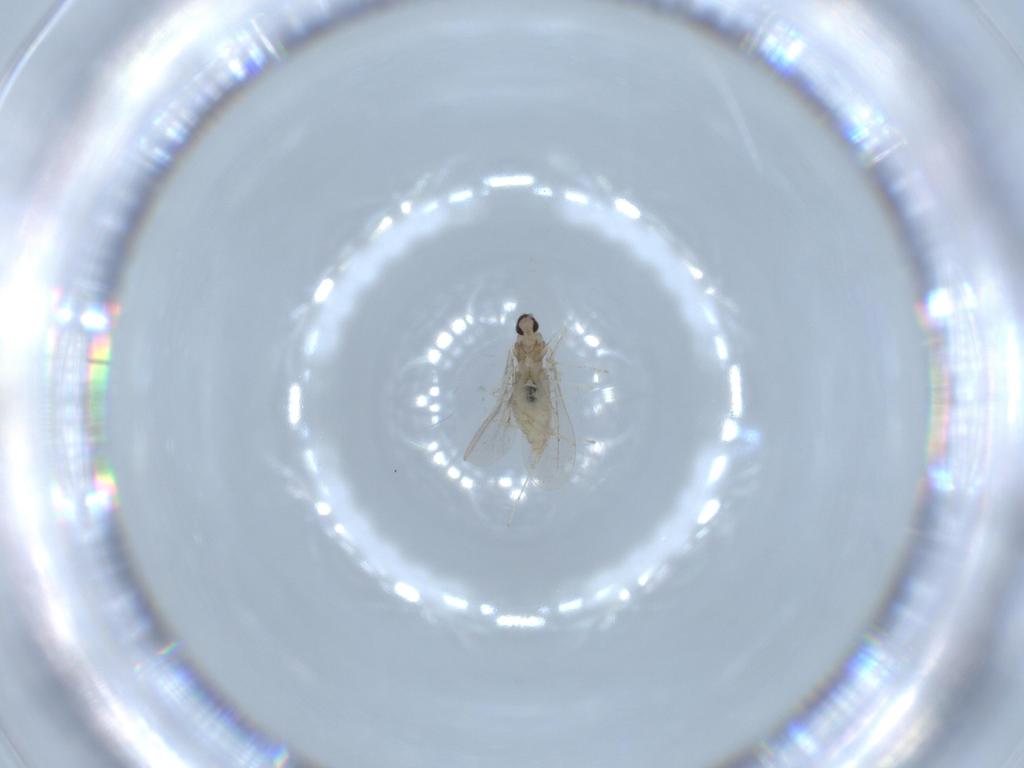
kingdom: Animalia
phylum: Arthropoda
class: Insecta
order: Diptera
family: Cecidomyiidae
